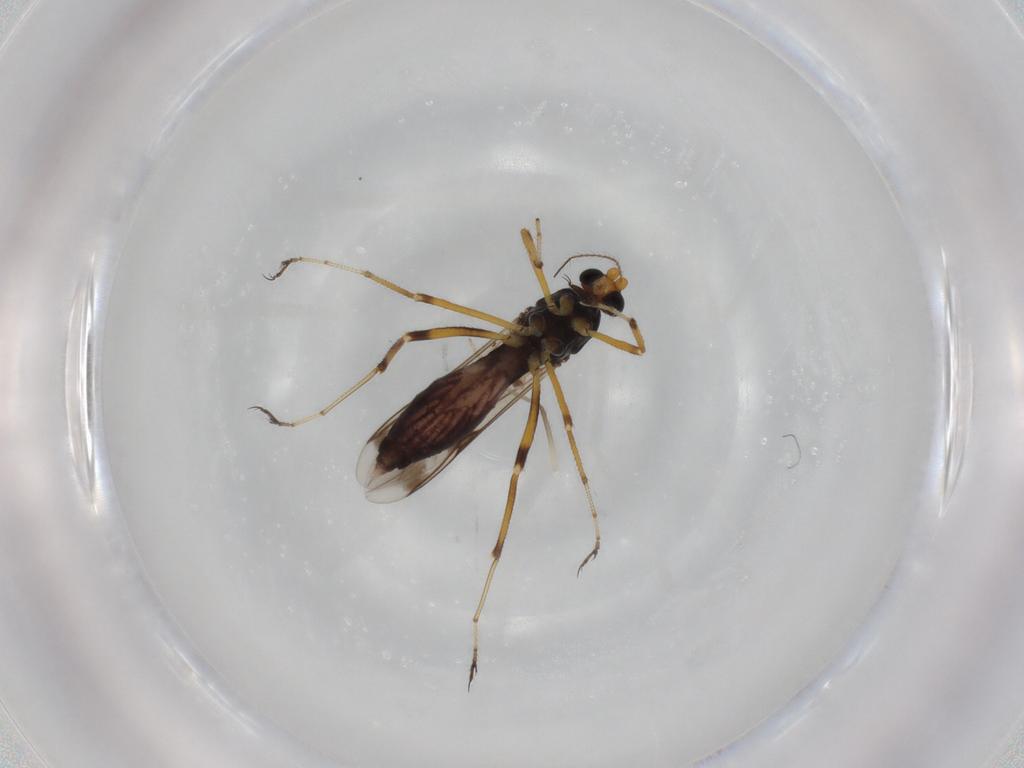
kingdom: Animalia
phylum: Arthropoda
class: Insecta
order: Diptera
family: Ceratopogonidae
